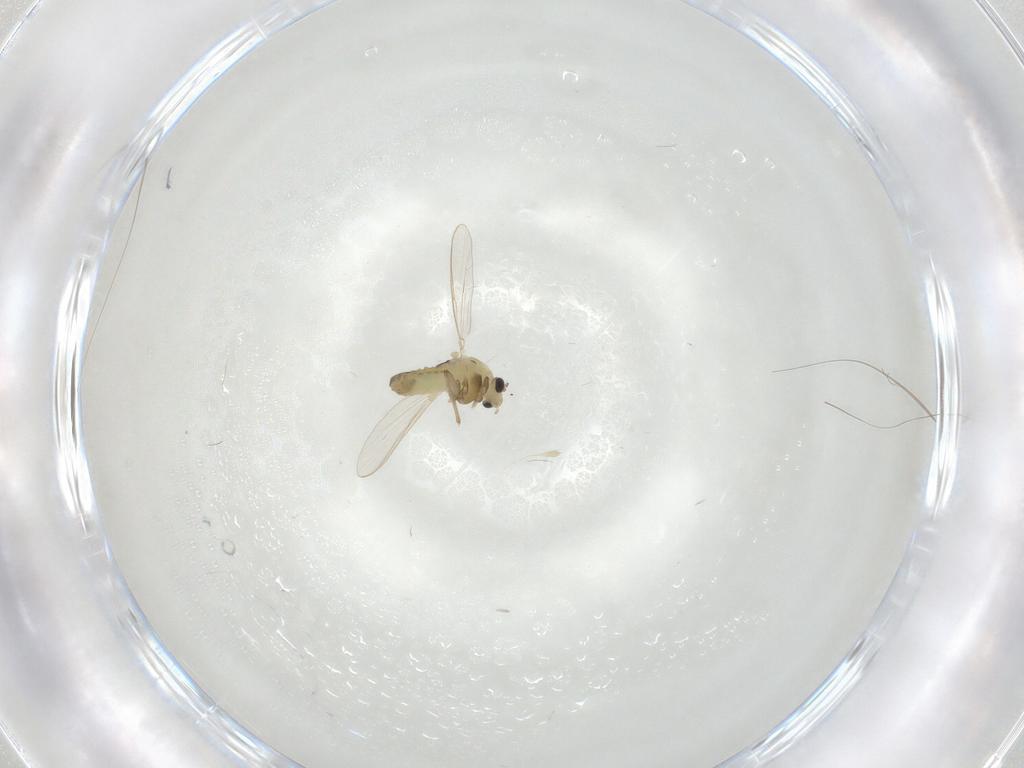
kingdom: Animalia
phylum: Arthropoda
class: Insecta
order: Diptera
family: Chironomidae
